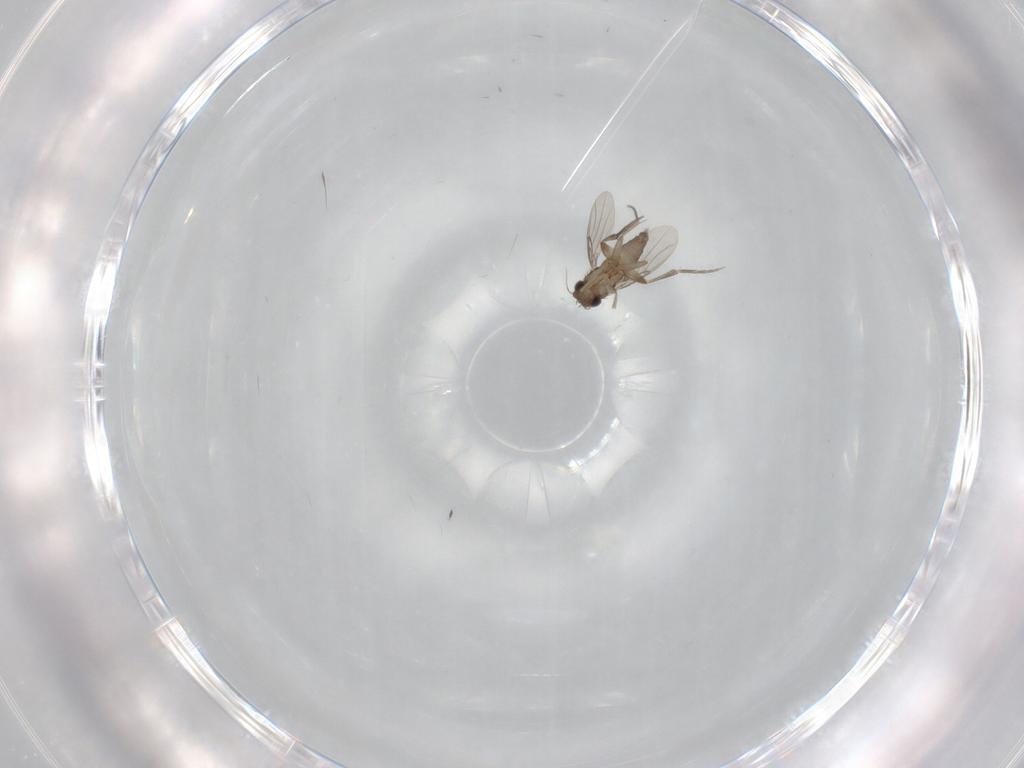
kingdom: Animalia
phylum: Arthropoda
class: Insecta
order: Diptera
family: Phoridae
